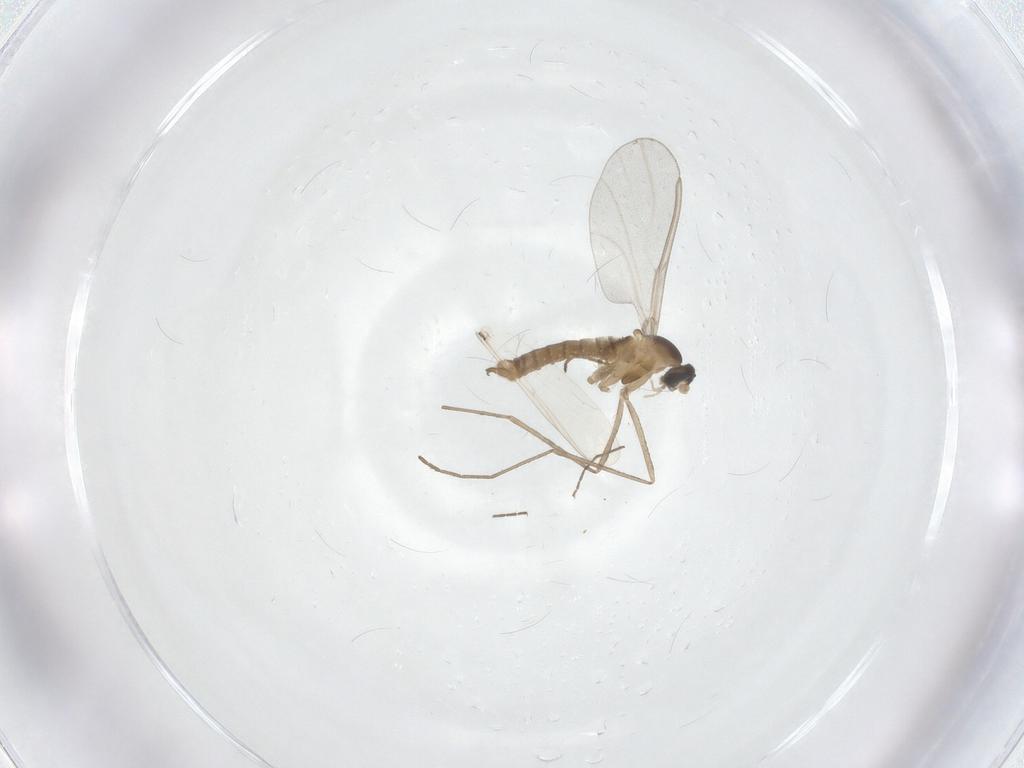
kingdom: Animalia
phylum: Arthropoda
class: Insecta
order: Diptera
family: Cecidomyiidae
